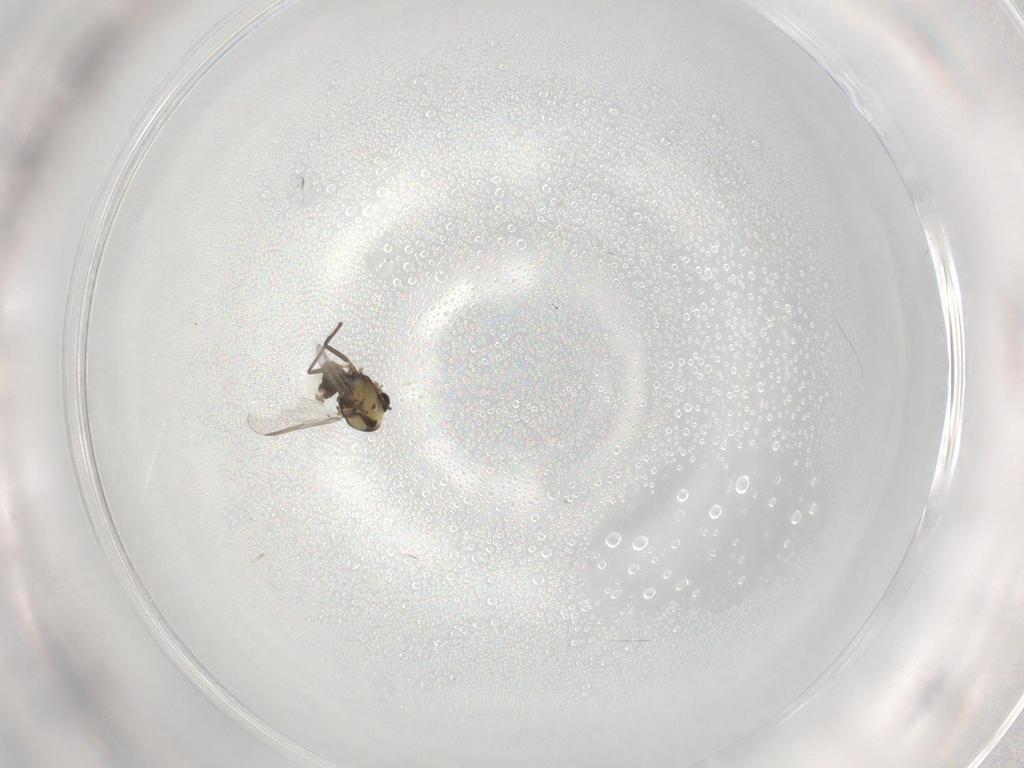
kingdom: Animalia
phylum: Arthropoda
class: Insecta
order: Diptera
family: Chironomidae
